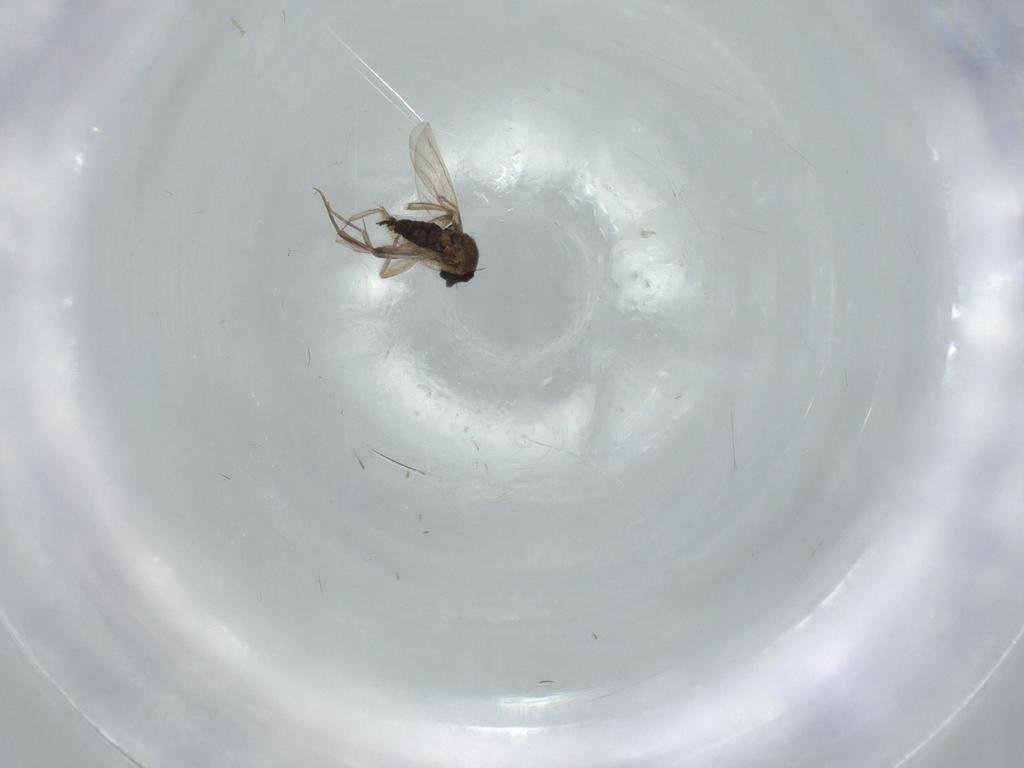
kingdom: Animalia
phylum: Arthropoda
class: Insecta
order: Diptera
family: Phoridae
